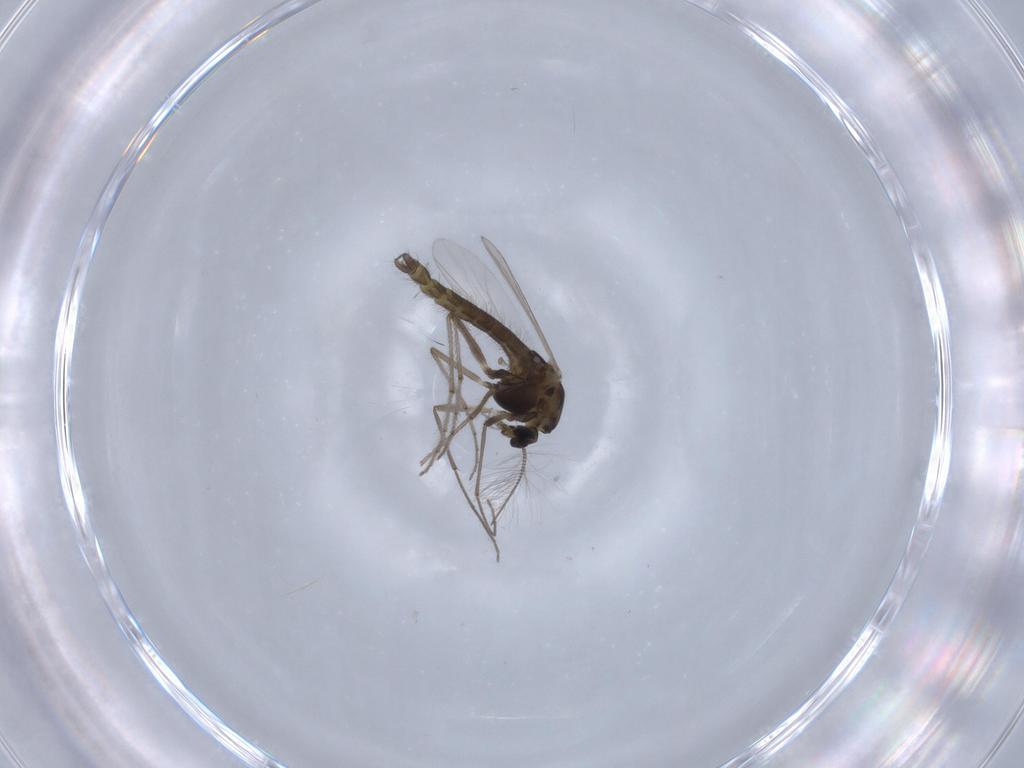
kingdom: Animalia
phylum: Arthropoda
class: Insecta
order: Diptera
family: Chironomidae
